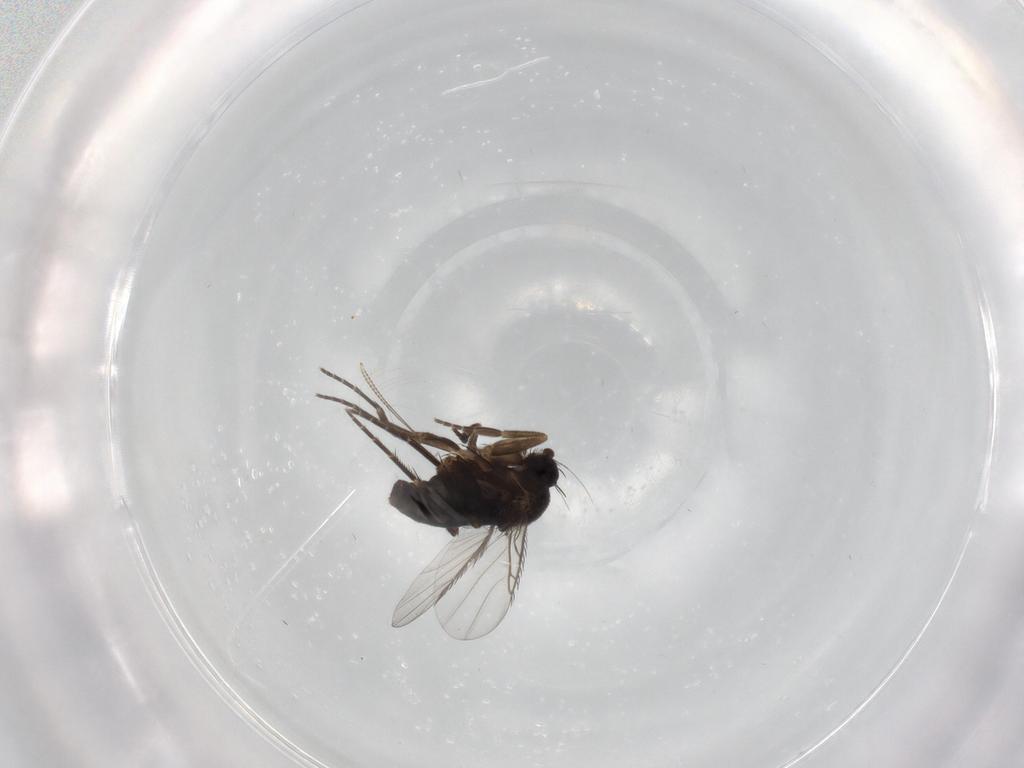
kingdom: Animalia
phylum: Arthropoda
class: Insecta
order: Diptera
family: Phoridae
